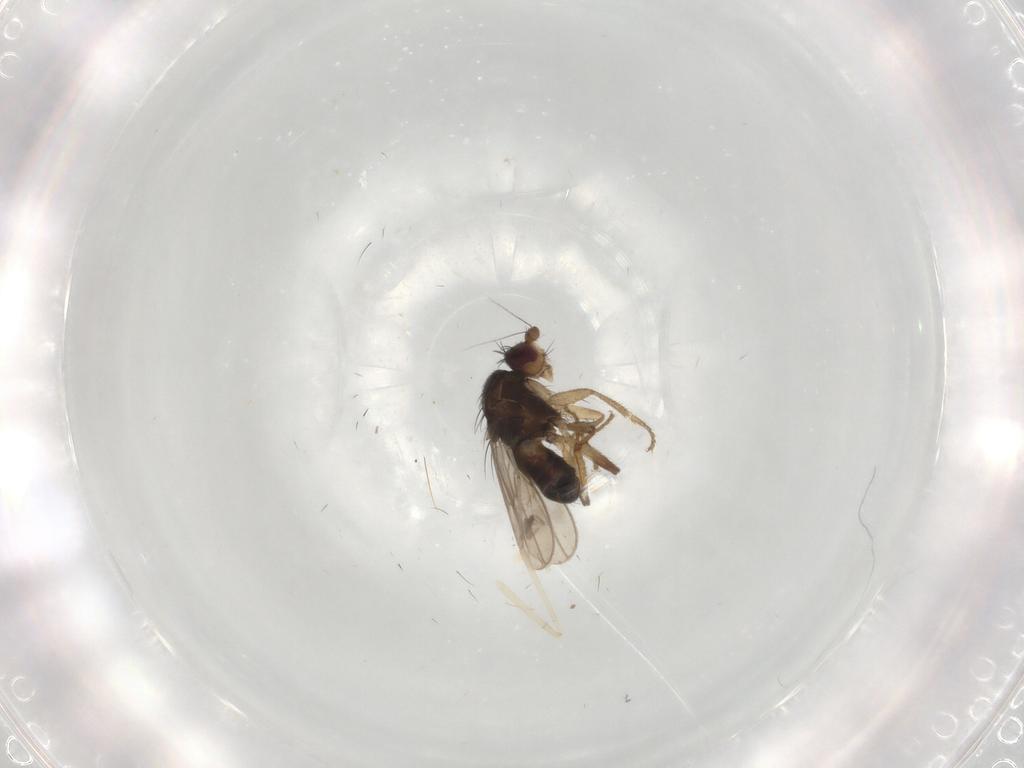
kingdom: Animalia
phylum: Arthropoda
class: Insecta
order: Diptera
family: Sphaeroceridae
